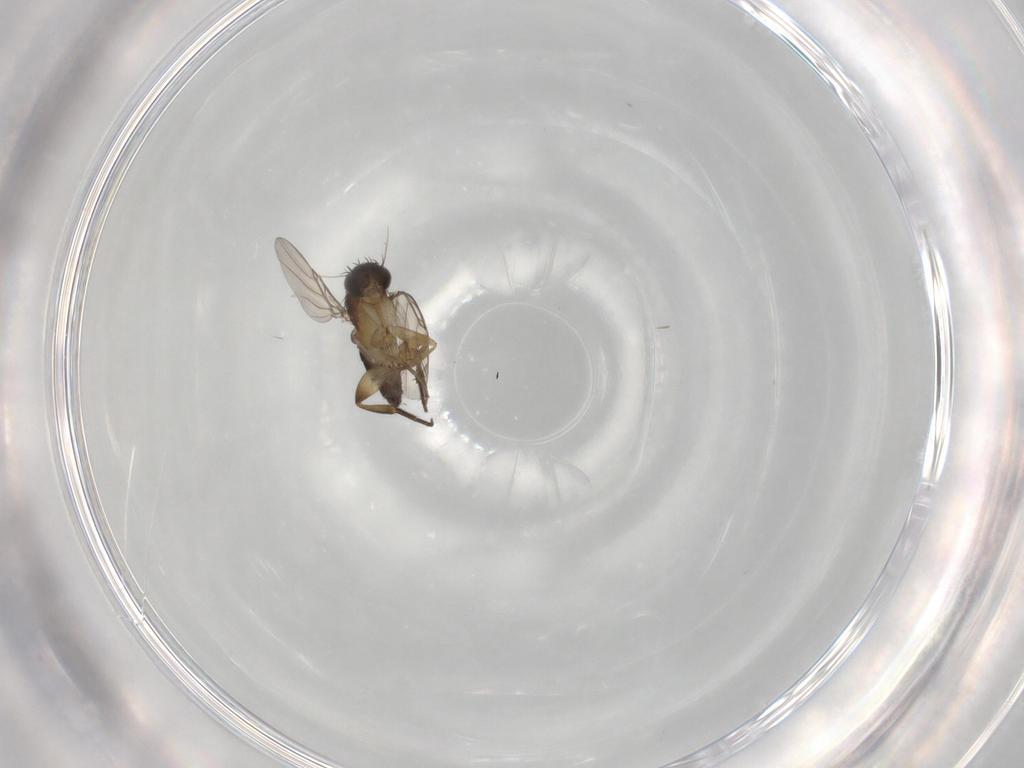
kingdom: Animalia
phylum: Arthropoda
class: Insecta
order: Diptera
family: Phoridae
